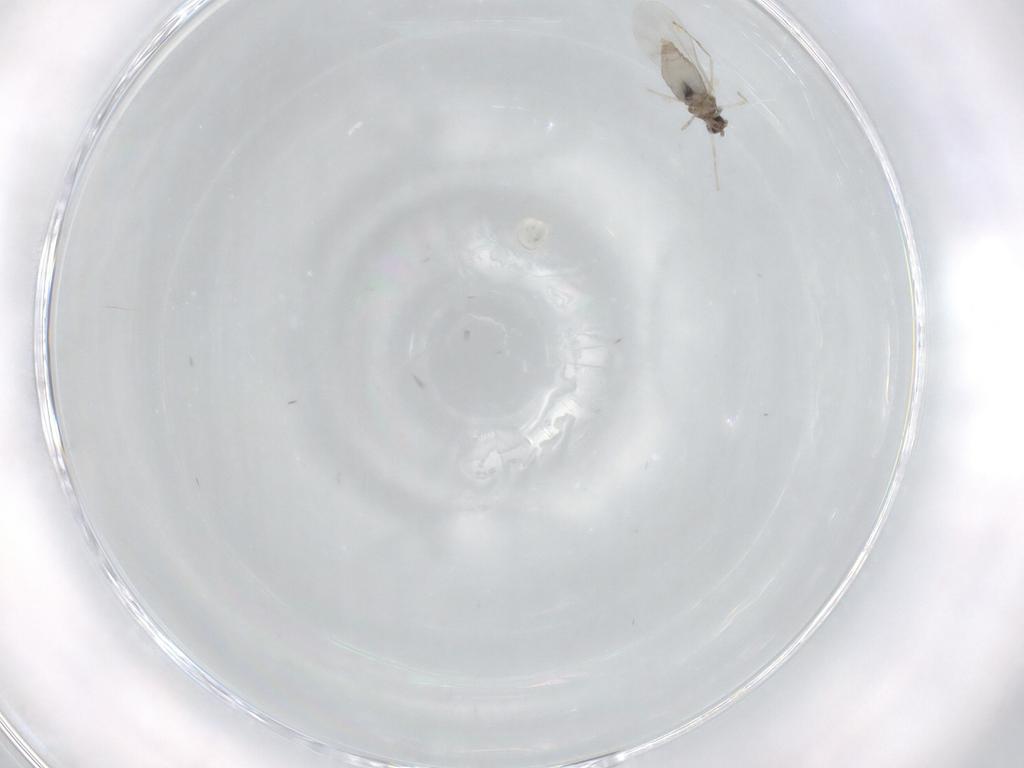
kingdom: Animalia
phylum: Arthropoda
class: Insecta
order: Diptera
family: Cecidomyiidae
